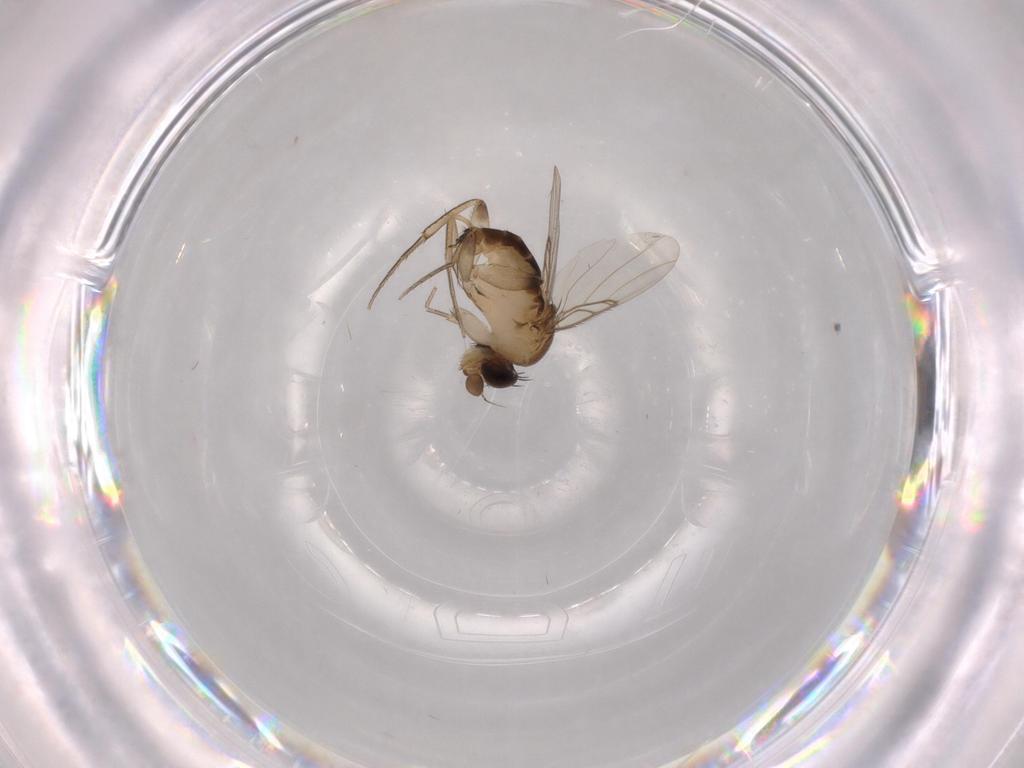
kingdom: Animalia
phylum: Arthropoda
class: Insecta
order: Diptera
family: Phoridae
